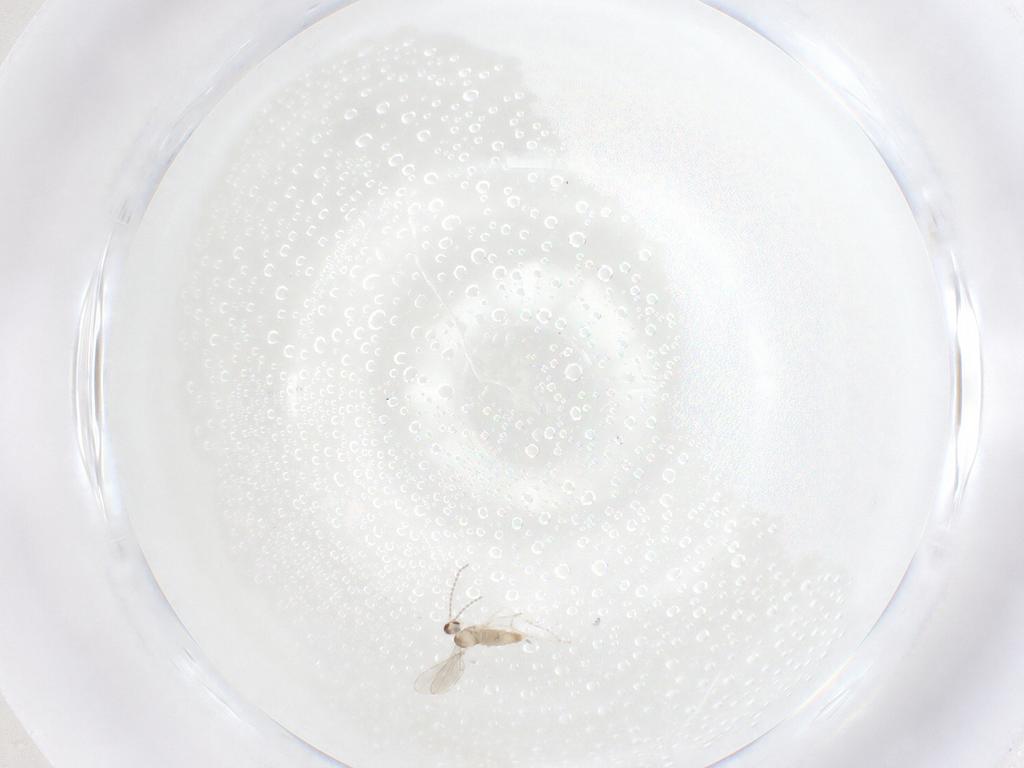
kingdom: Animalia
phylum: Arthropoda
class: Insecta
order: Diptera
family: Cecidomyiidae
